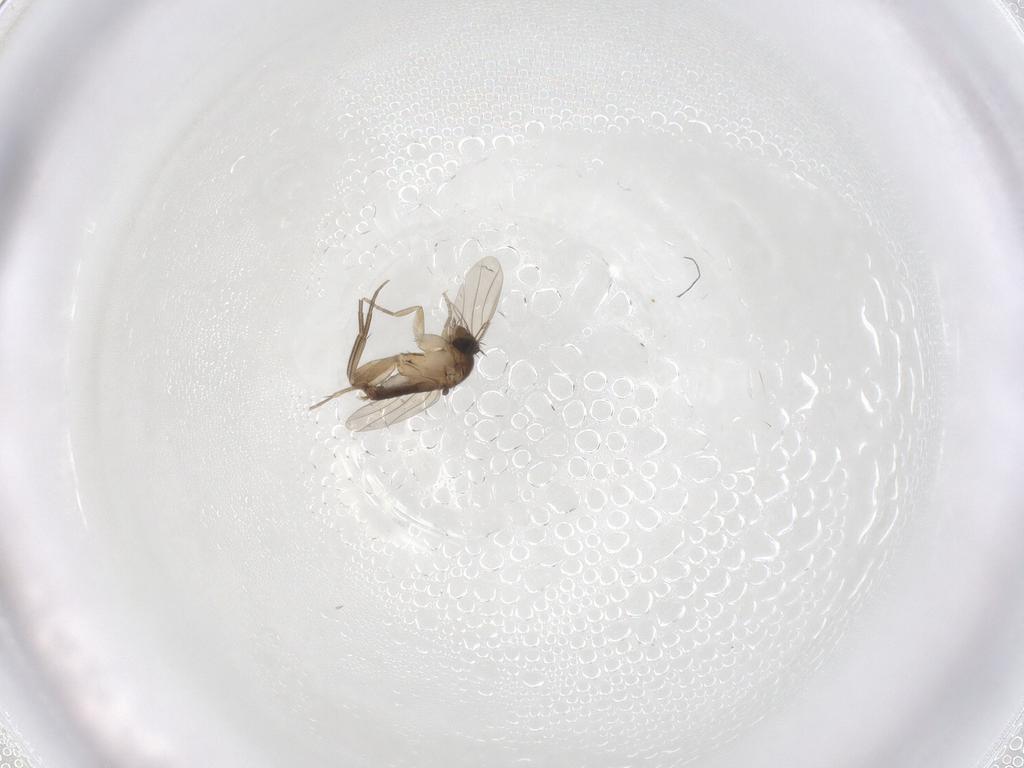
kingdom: Animalia
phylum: Arthropoda
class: Insecta
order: Diptera
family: Phoridae
